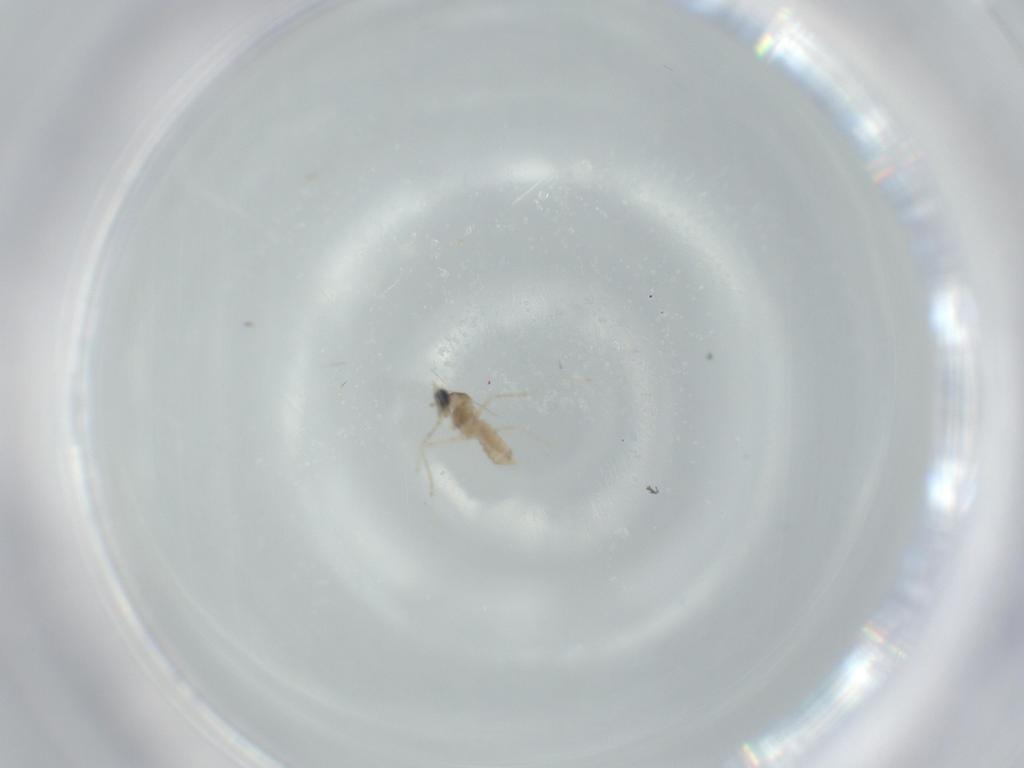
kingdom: Animalia
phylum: Arthropoda
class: Insecta
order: Diptera
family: Cecidomyiidae
